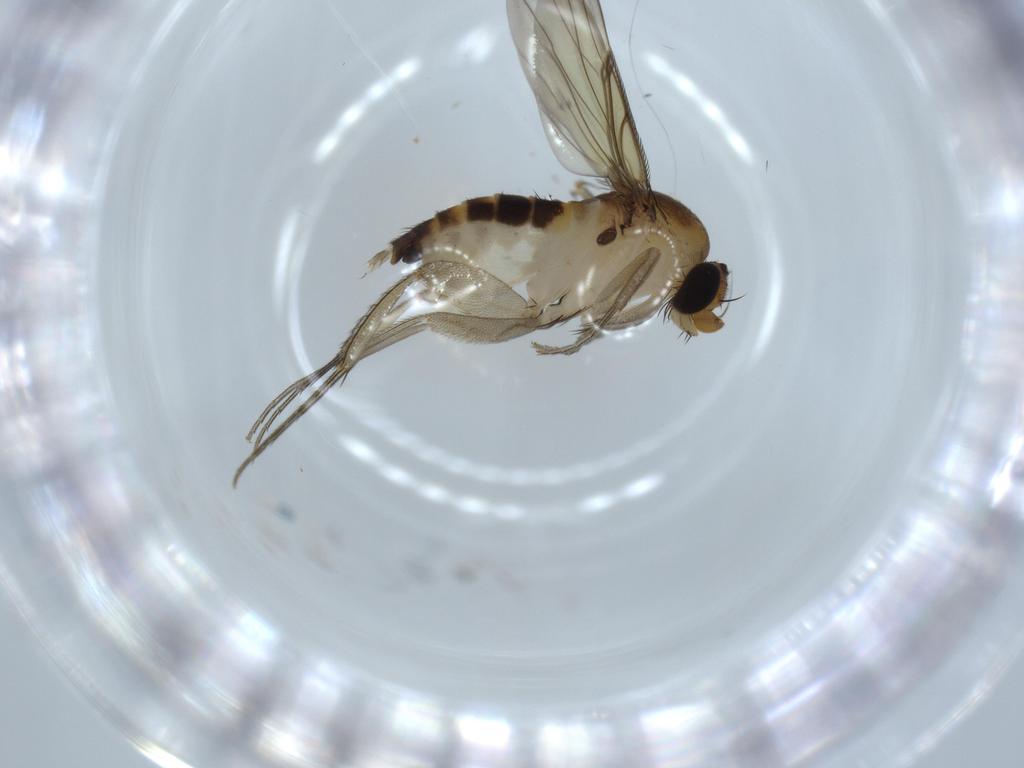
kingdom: Animalia
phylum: Arthropoda
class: Insecta
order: Diptera
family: Phoridae
